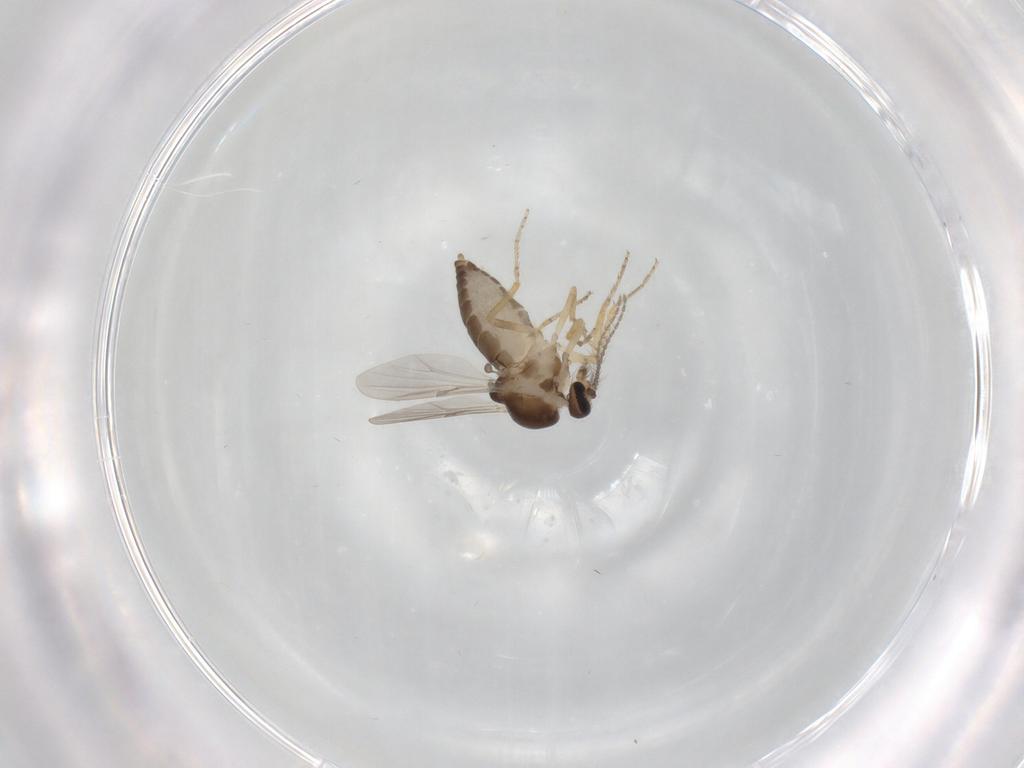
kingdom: Animalia
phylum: Arthropoda
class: Insecta
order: Diptera
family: Ceratopogonidae
